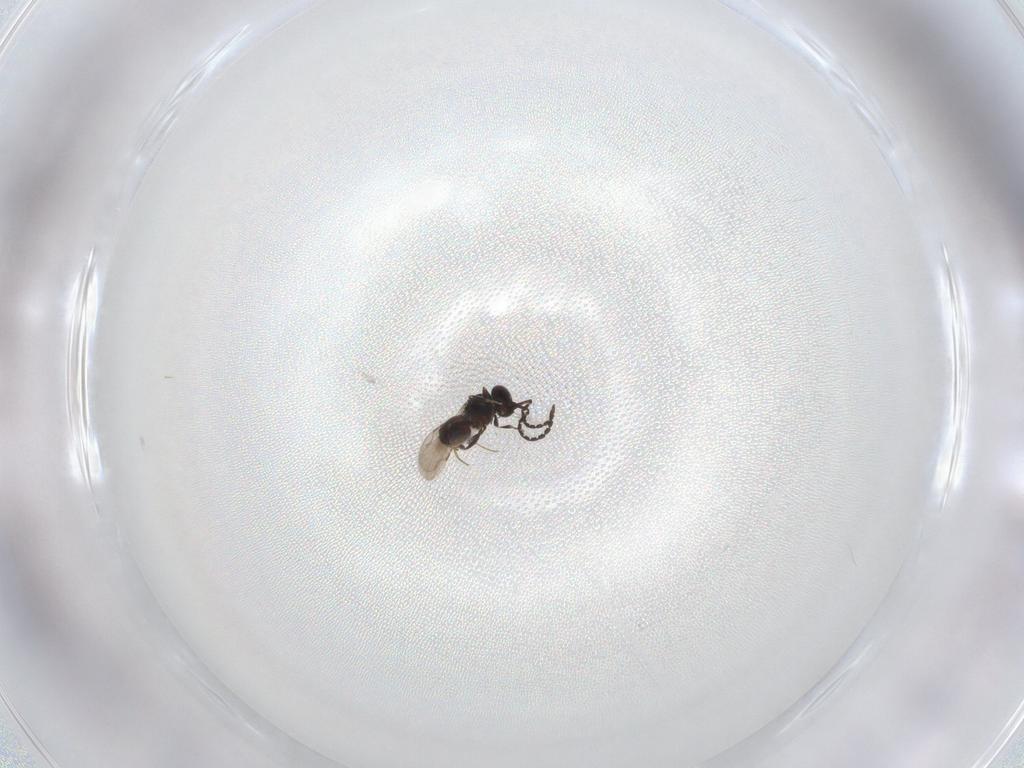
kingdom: Animalia
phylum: Arthropoda
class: Insecta
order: Hymenoptera
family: Ceraphronidae
